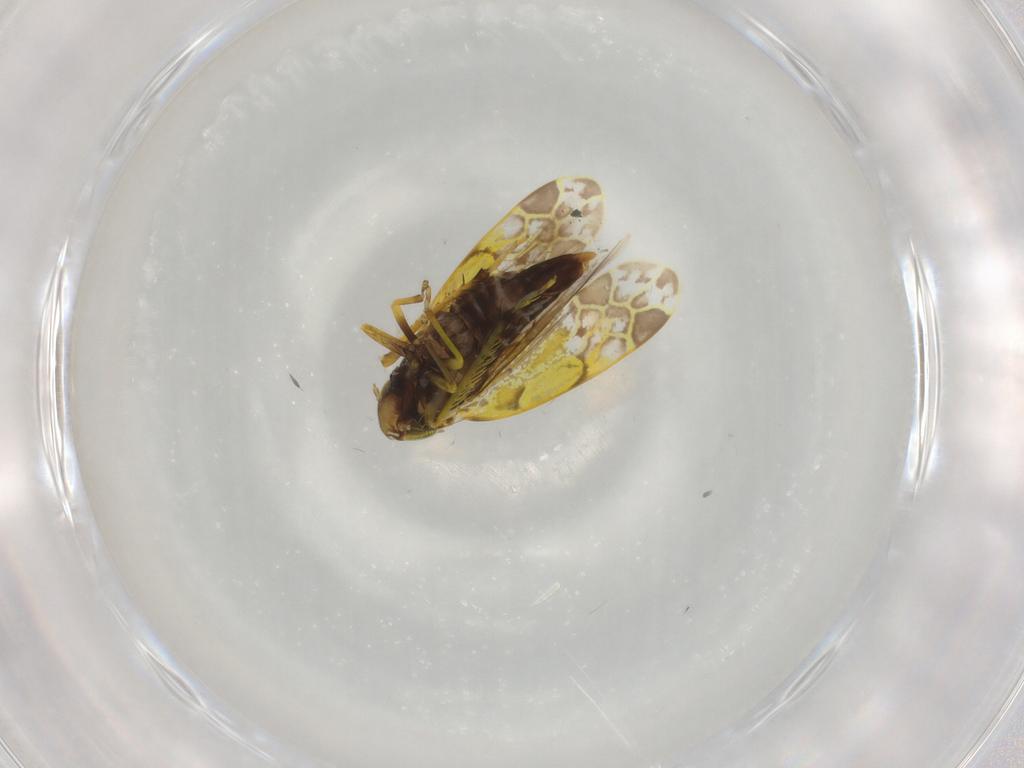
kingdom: Animalia
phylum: Arthropoda
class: Insecta
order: Hemiptera
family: Cicadellidae
